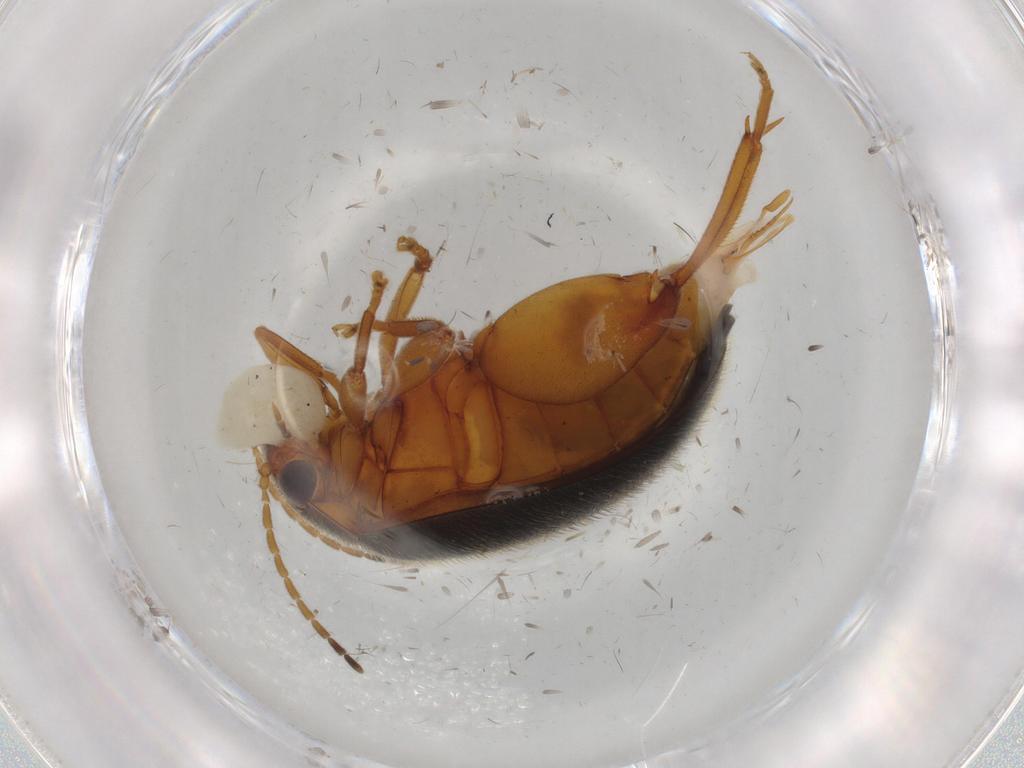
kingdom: Animalia
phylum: Arthropoda
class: Insecta
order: Coleoptera
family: Scirtidae
